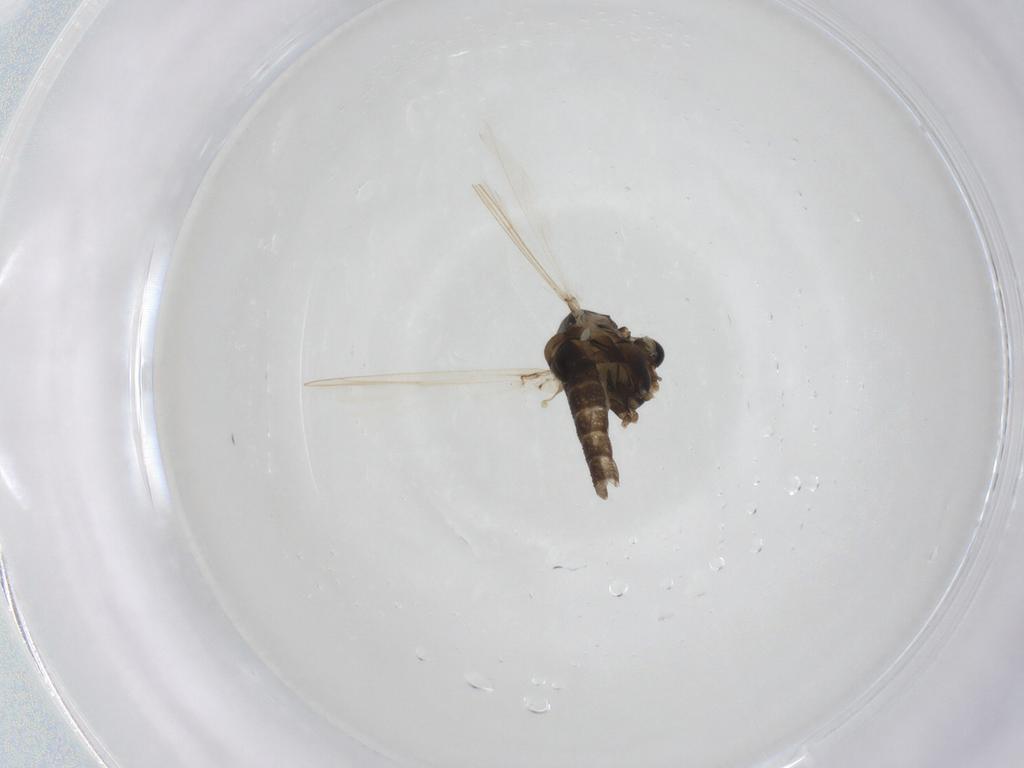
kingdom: Animalia
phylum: Arthropoda
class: Insecta
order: Diptera
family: Chironomidae
